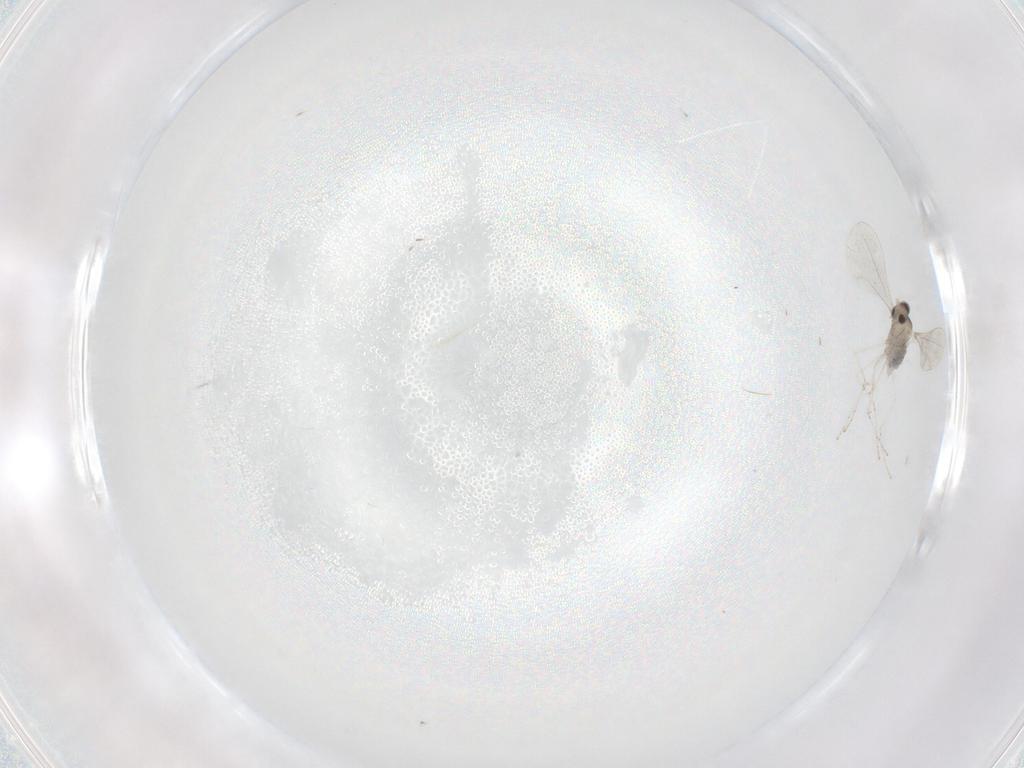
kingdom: Animalia
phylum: Arthropoda
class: Insecta
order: Diptera
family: Cecidomyiidae
